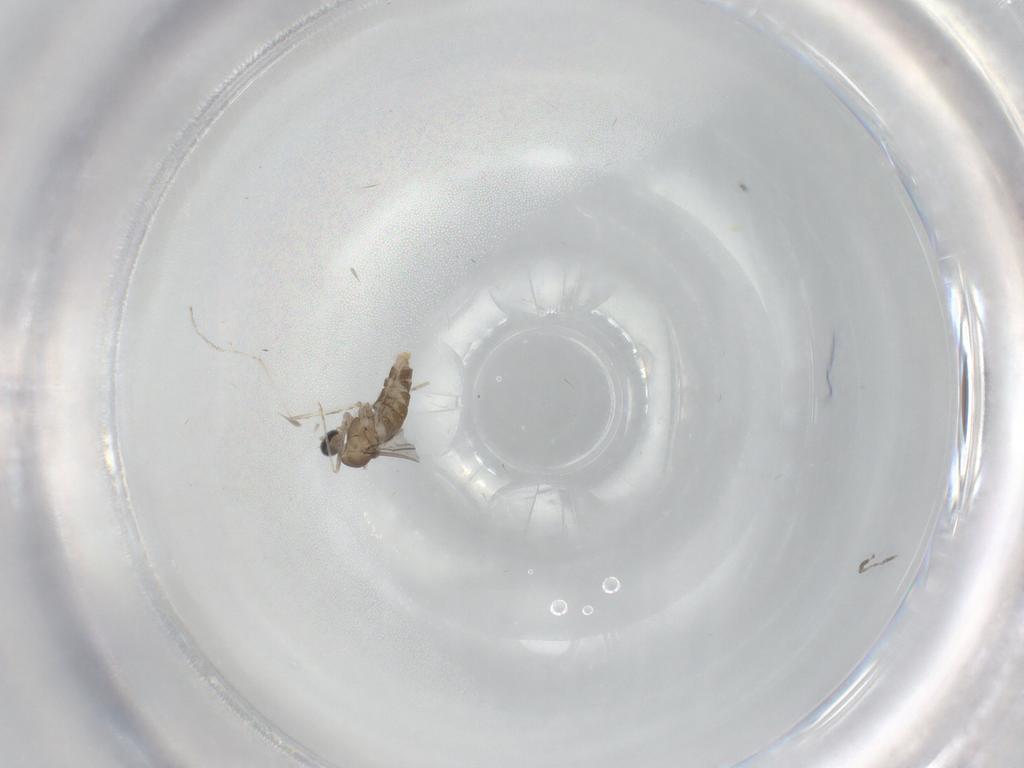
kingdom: Animalia
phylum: Arthropoda
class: Insecta
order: Diptera
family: Cecidomyiidae
